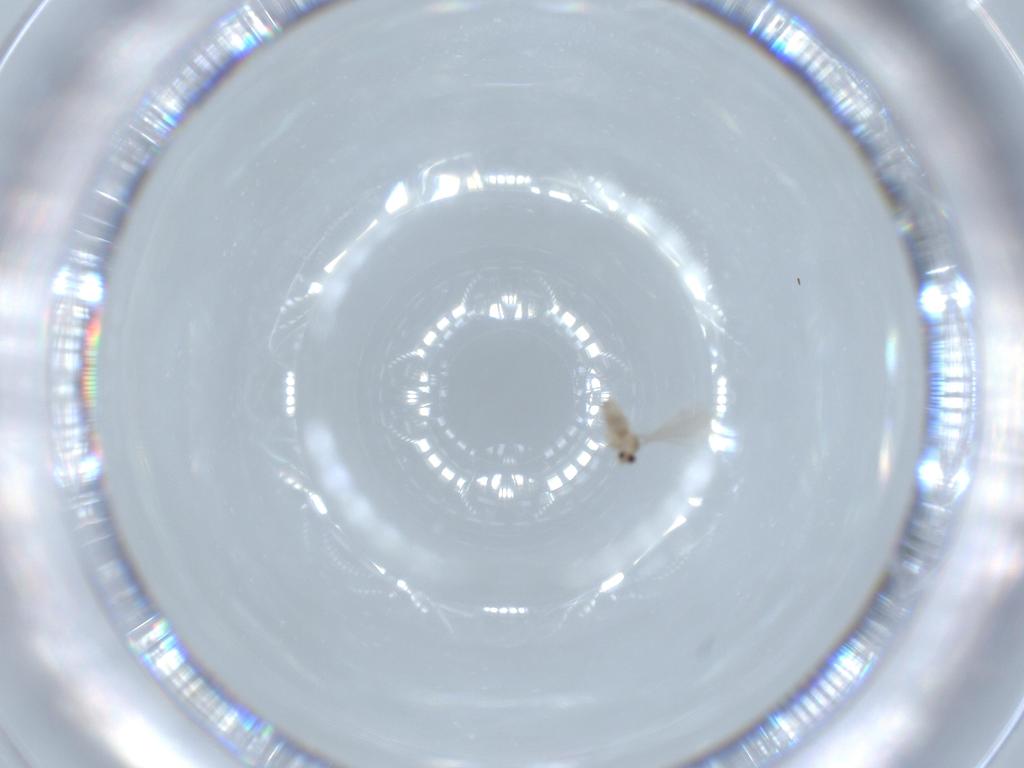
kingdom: Animalia
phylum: Arthropoda
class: Insecta
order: Diptera
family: Cecidomyiidae
